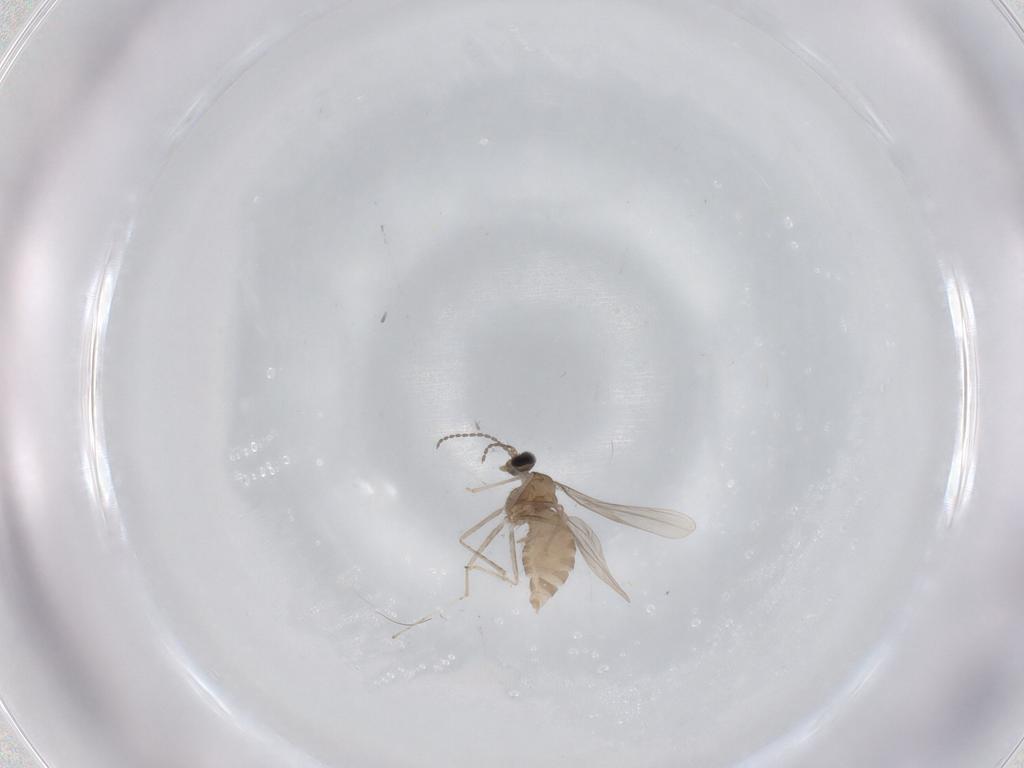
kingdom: Animalia
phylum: Arthropoda
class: Insecta
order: Diptera
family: Cecidomyiidae
